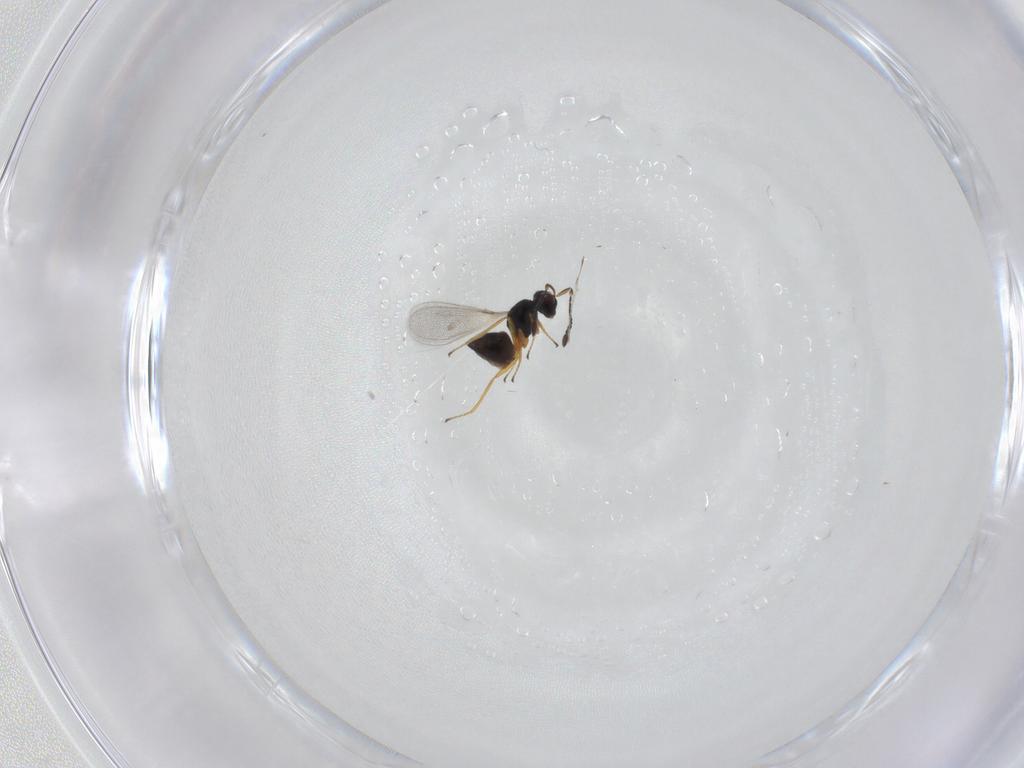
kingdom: Animalia
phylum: Arthropoda
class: Insecta
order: Hymenoptera
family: Mymaridae
